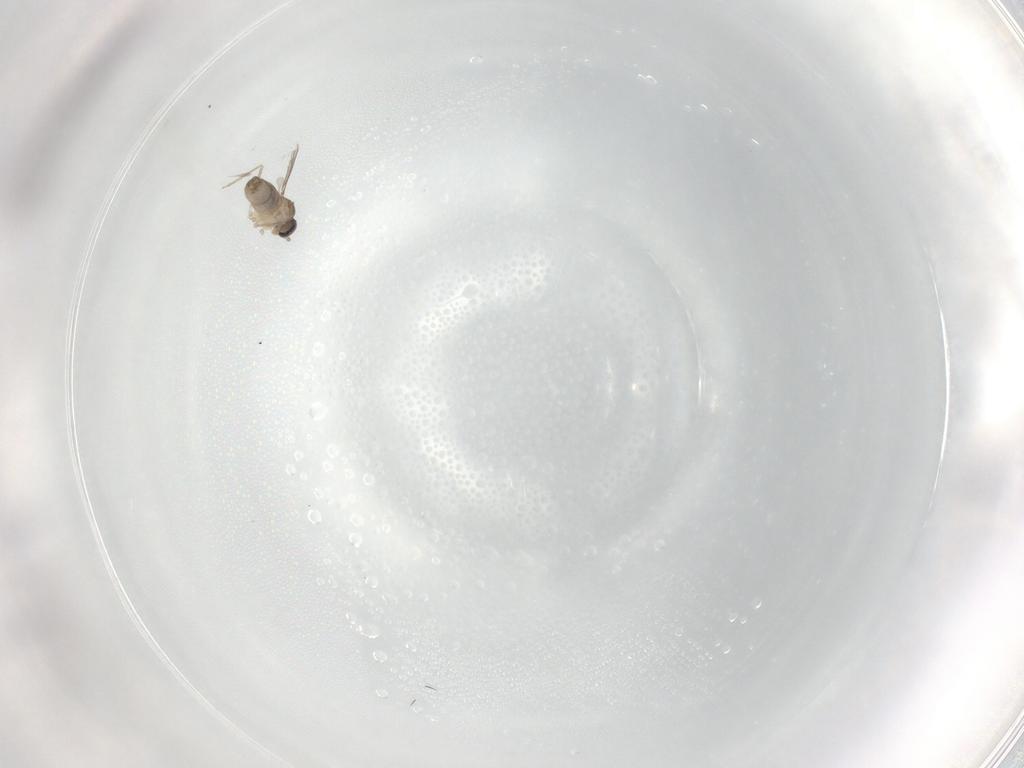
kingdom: Animalia
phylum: Arthropoda
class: Insecta
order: Diptera
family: Cecidomyiidae
